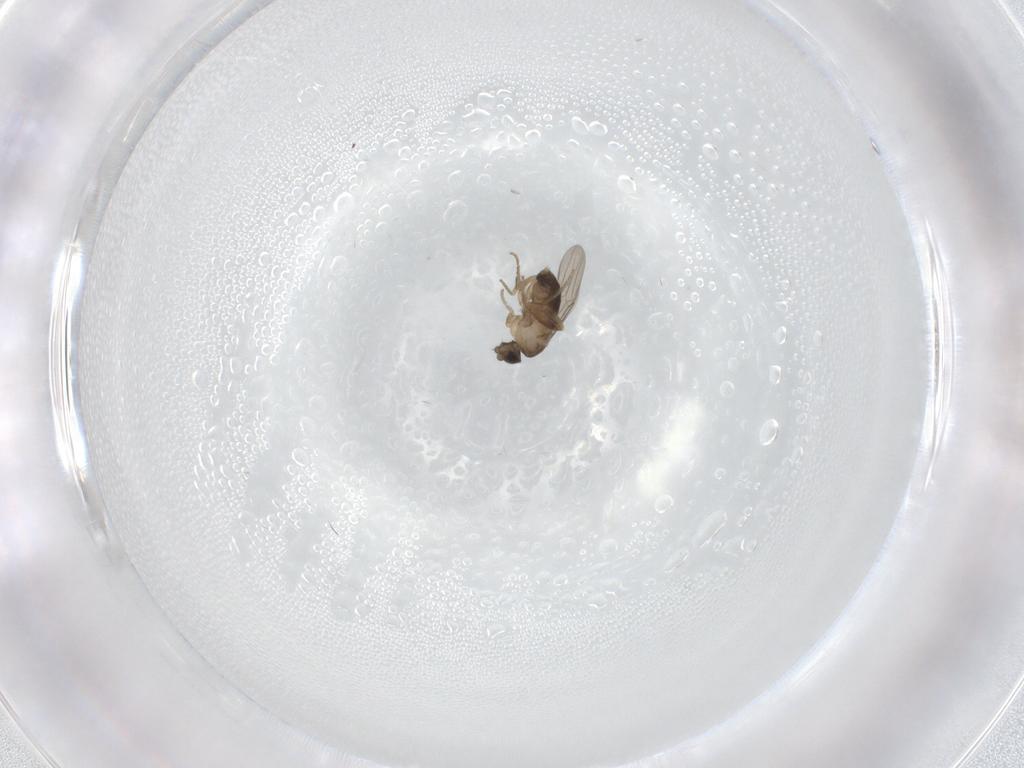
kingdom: Animalia
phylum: Arthropoda
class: Insecta
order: Diptera
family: Phoridae
